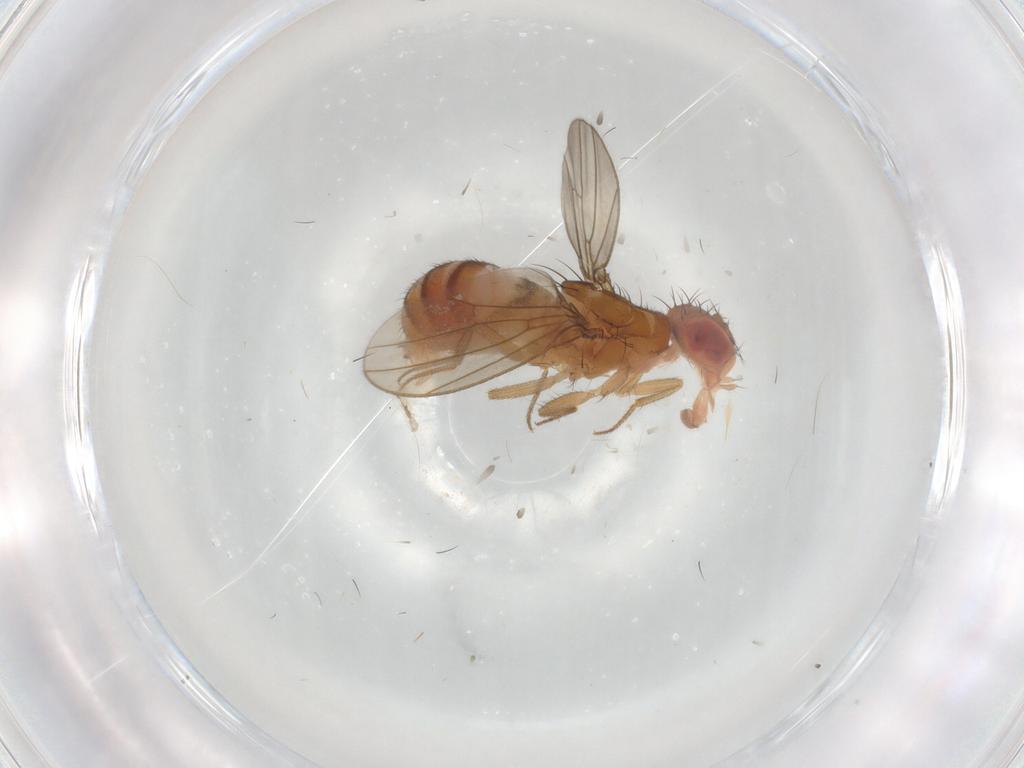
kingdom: Animalia
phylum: Arthropoda
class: Insecta
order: Diptera
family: Drosophilidae
